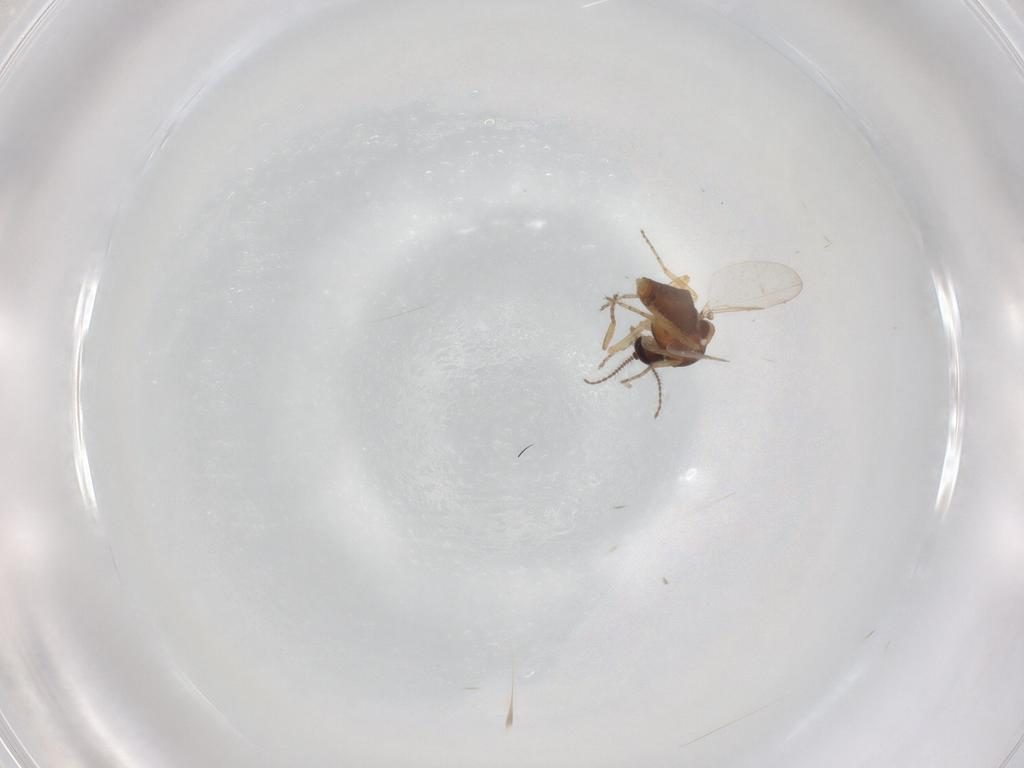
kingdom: Animalia
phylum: Arthropoda
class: Insecta
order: Diptera
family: Ceratopogonidae
